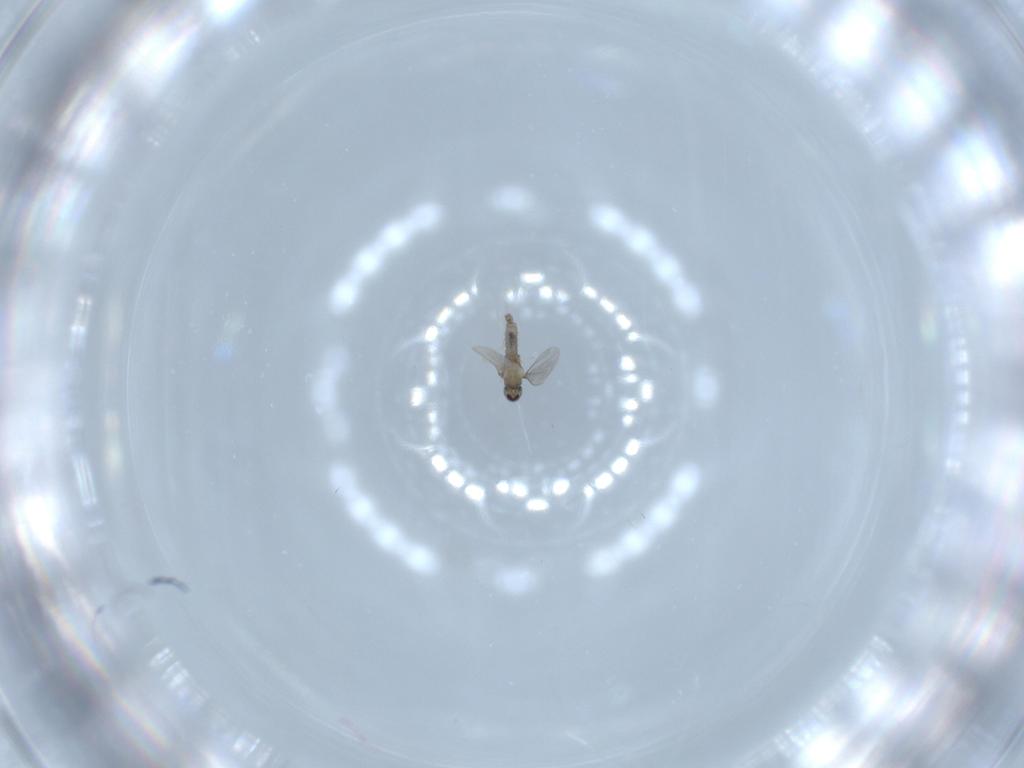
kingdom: Animalia
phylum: Arthropoda
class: Insecta
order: Diptera
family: Cecidomyiidae
